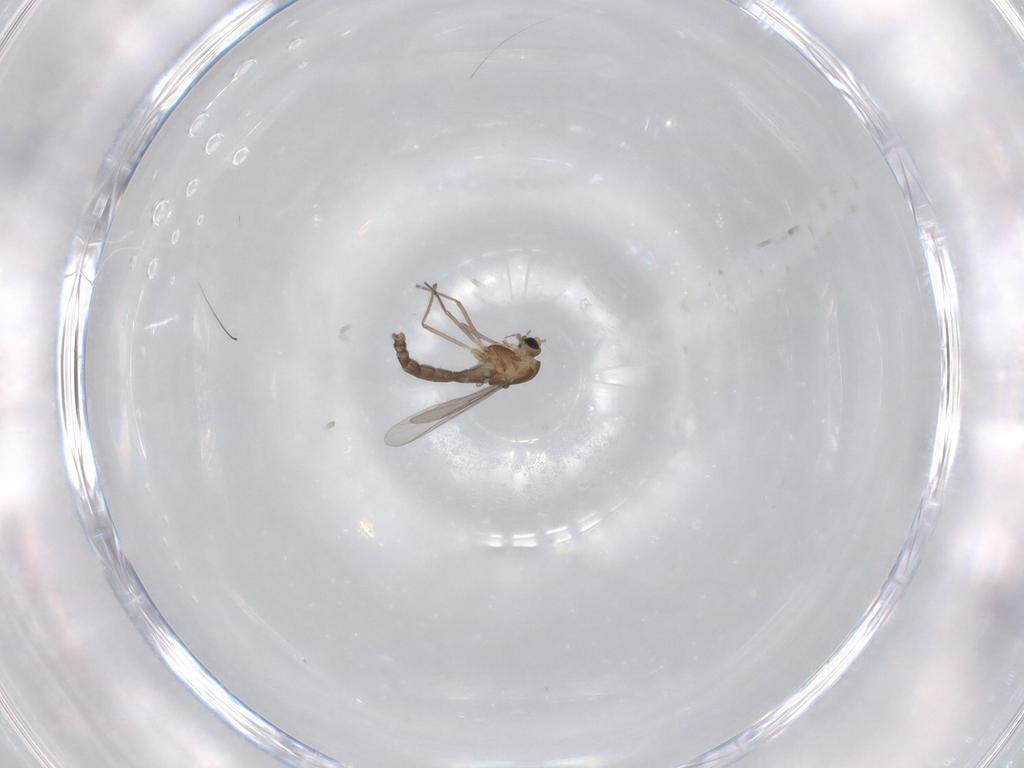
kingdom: Animalia
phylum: Arthropoda
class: Insecta
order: Diptera
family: Dolichopodidae
